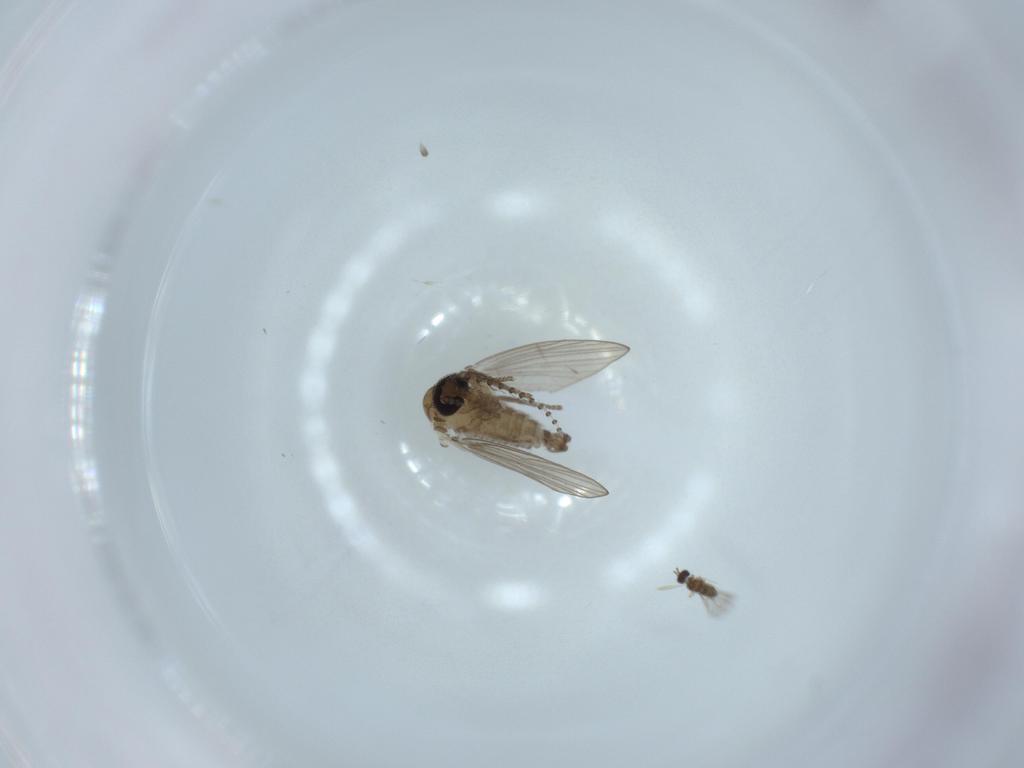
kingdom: Animalia
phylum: Arthropoda
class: Insecta
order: Diptera
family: Psychodidae
